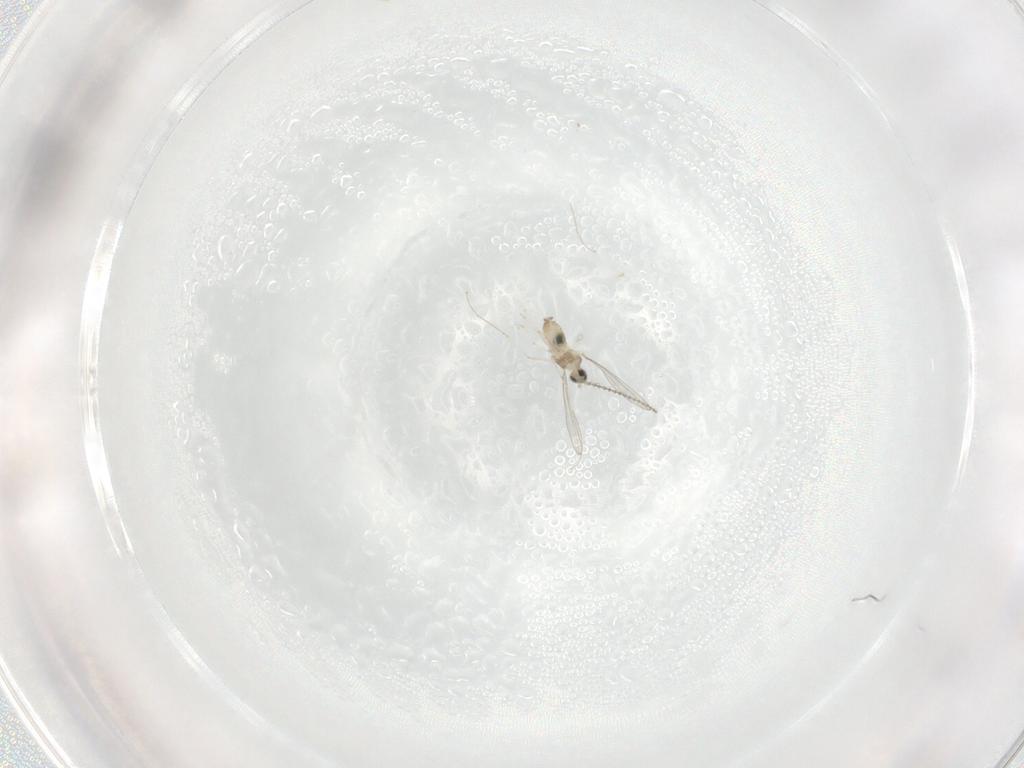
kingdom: Animalia
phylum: Arthropoda
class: Insecta
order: Diptera
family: Cecidomyiidae
